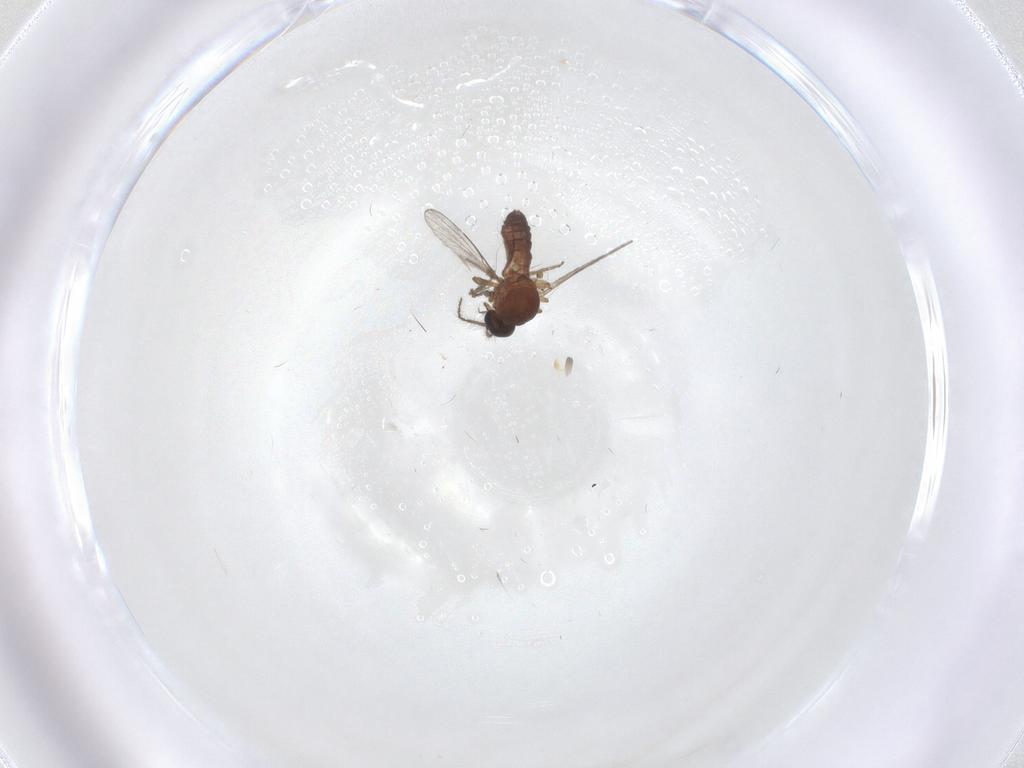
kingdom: Animalia
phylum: Arthropoda
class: Insecta
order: Diptera
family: Ceratopogonidae
